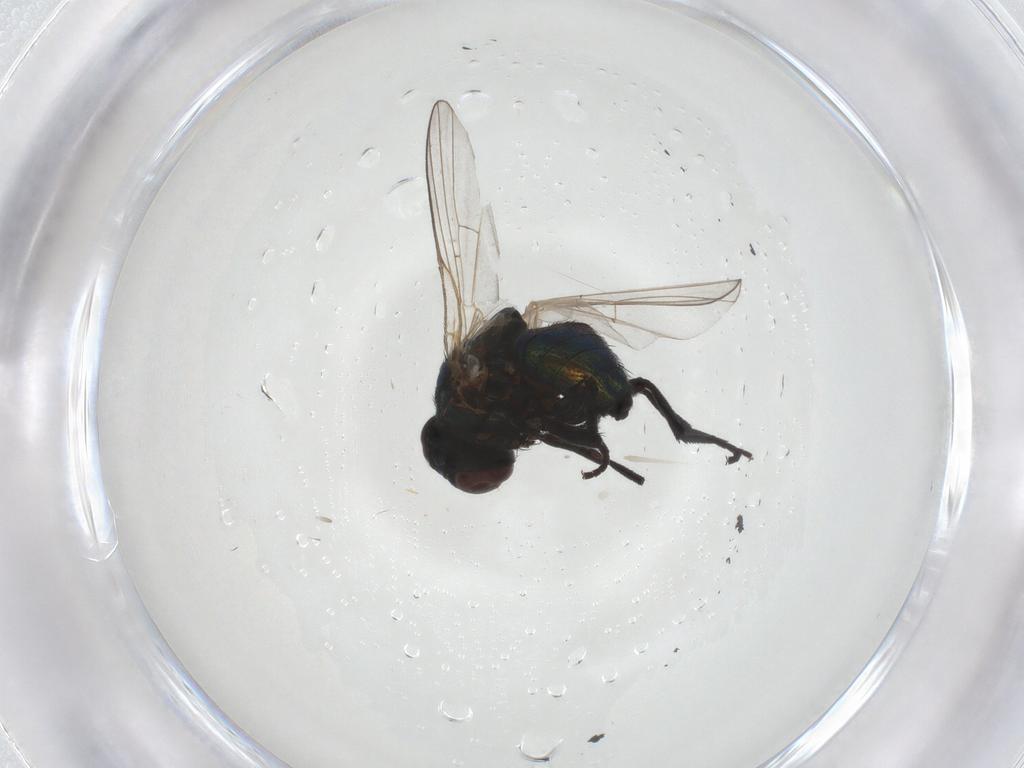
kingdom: Animalia
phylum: Arthropoda
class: Insecta
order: Diptera
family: Agromyzidae
